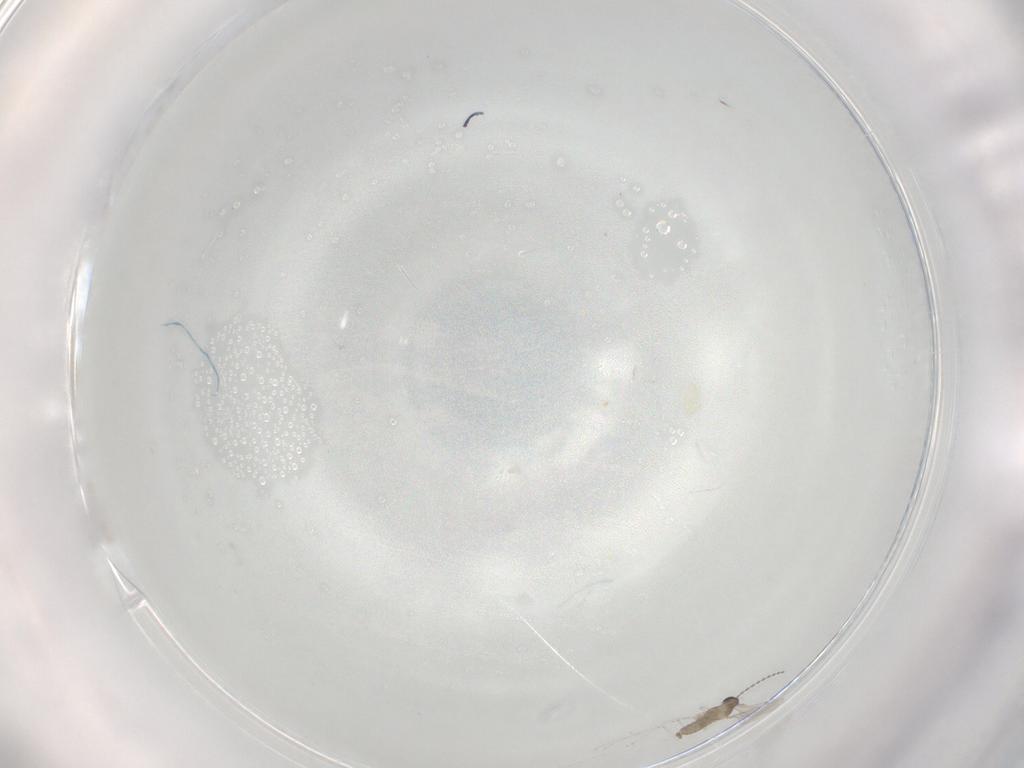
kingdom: Animalia
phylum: Arthropoda
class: Insecta
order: Diptera
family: Cecidomyiidae
